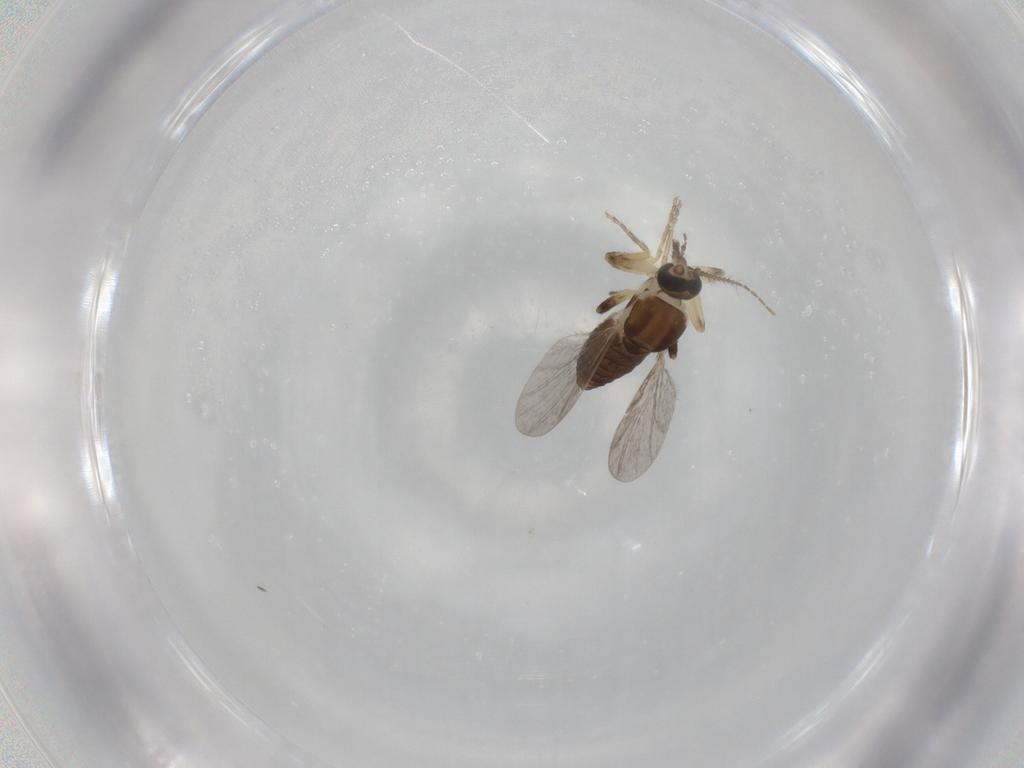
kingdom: Animalia
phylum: Arthropoda
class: Insecta
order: Diptera
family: Ceratopogonidae
